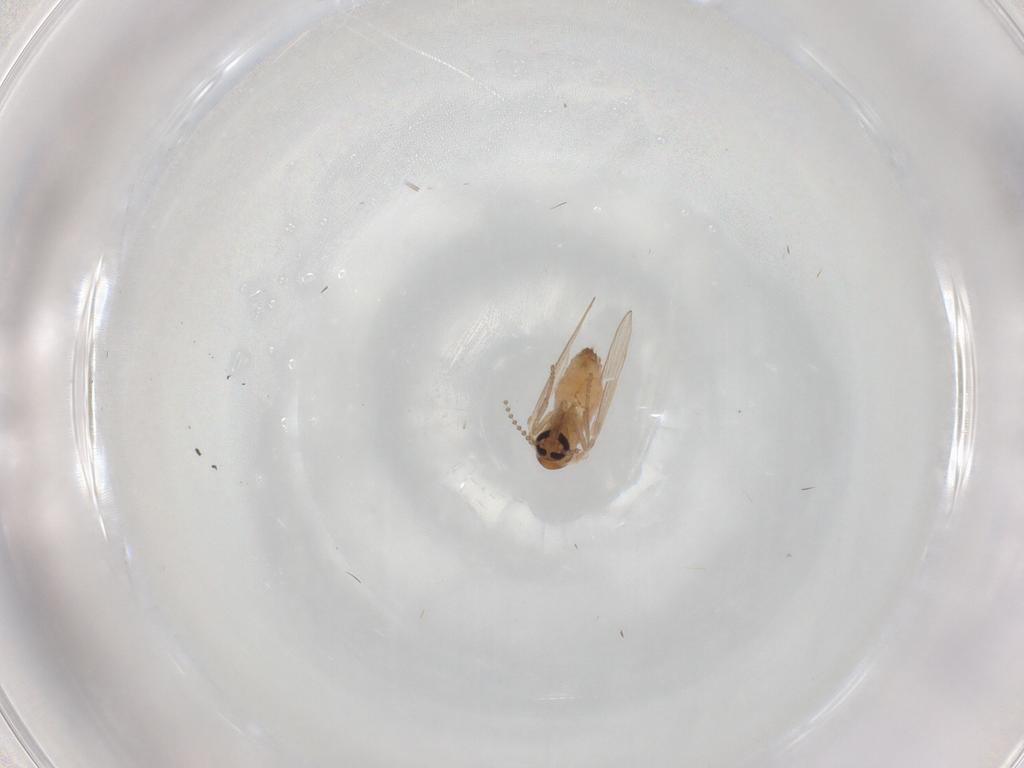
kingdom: Animalia
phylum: Arthropoda
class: Insecta
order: Diptera
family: Psychodidae
